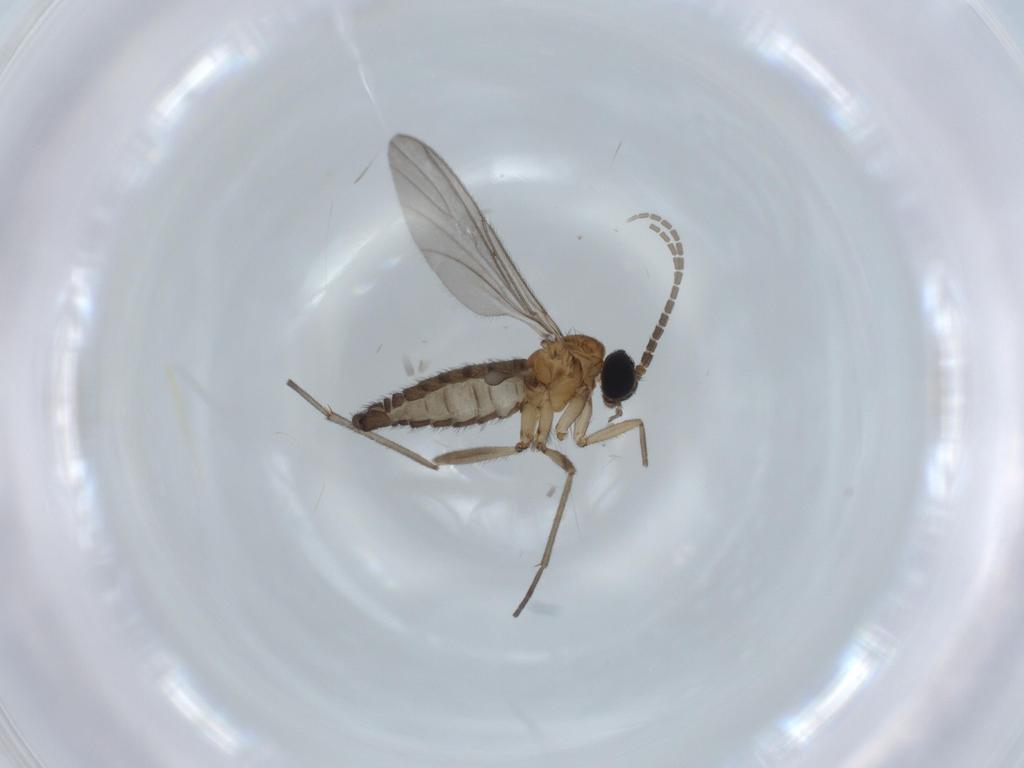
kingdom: Animalia
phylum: Arthropoda
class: Insecta
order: Diptera
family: Sciaridae
